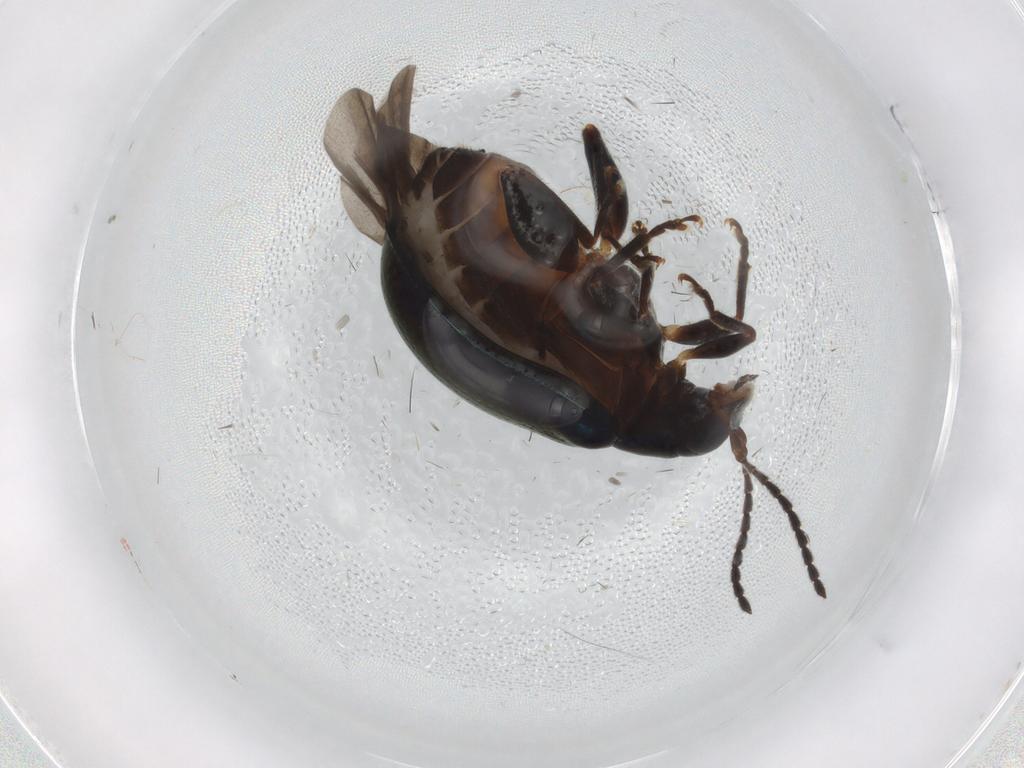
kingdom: Animalia
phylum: Arthropoda
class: Insecta
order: Coleoptera
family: Chrysomelidae
